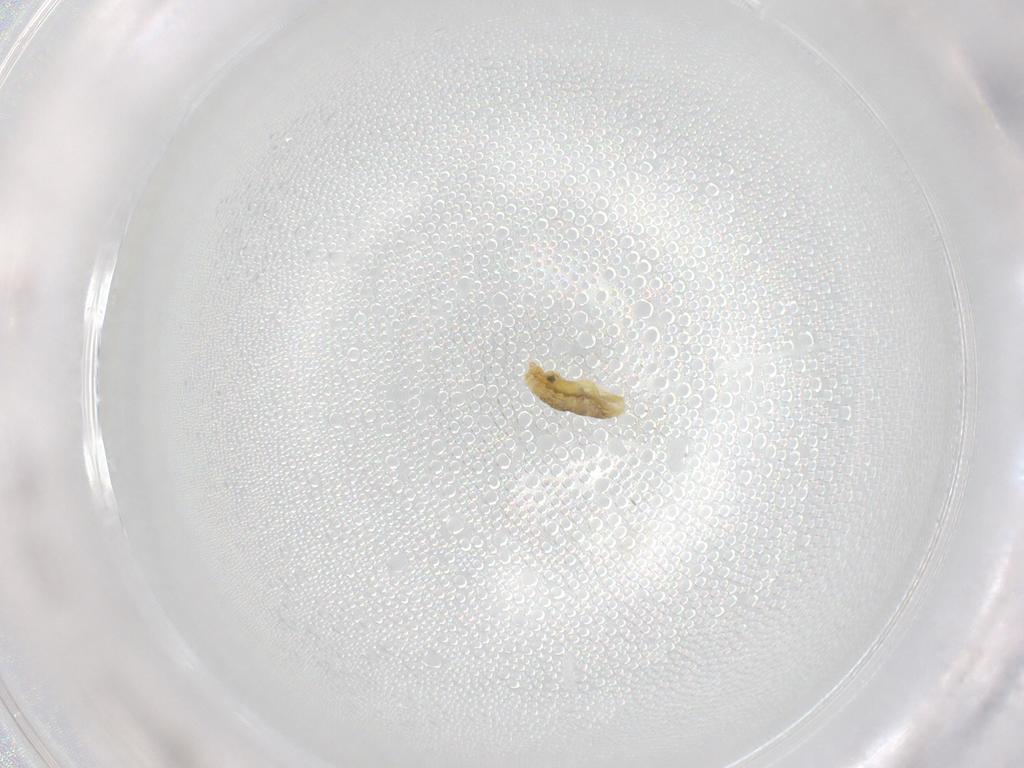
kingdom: Animalia
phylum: Arthropoda
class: Insecta
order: Diptera
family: Chironomidae
